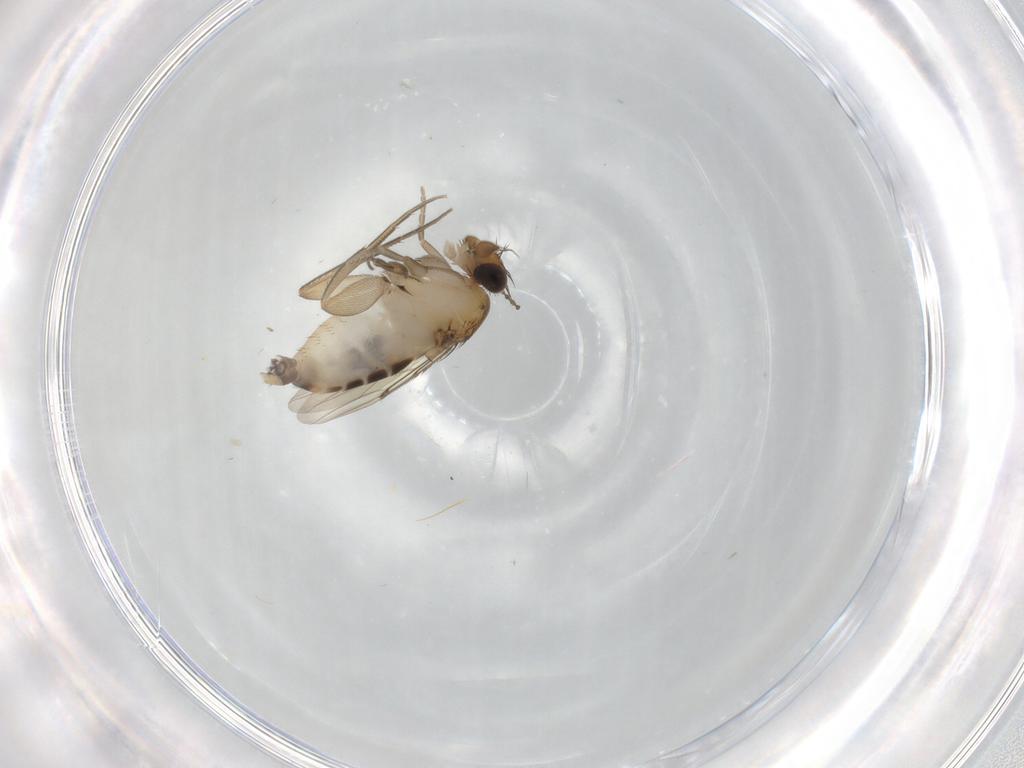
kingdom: Animalia
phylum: Arthropoda
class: Insecta
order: Diptera
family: Phoridae
